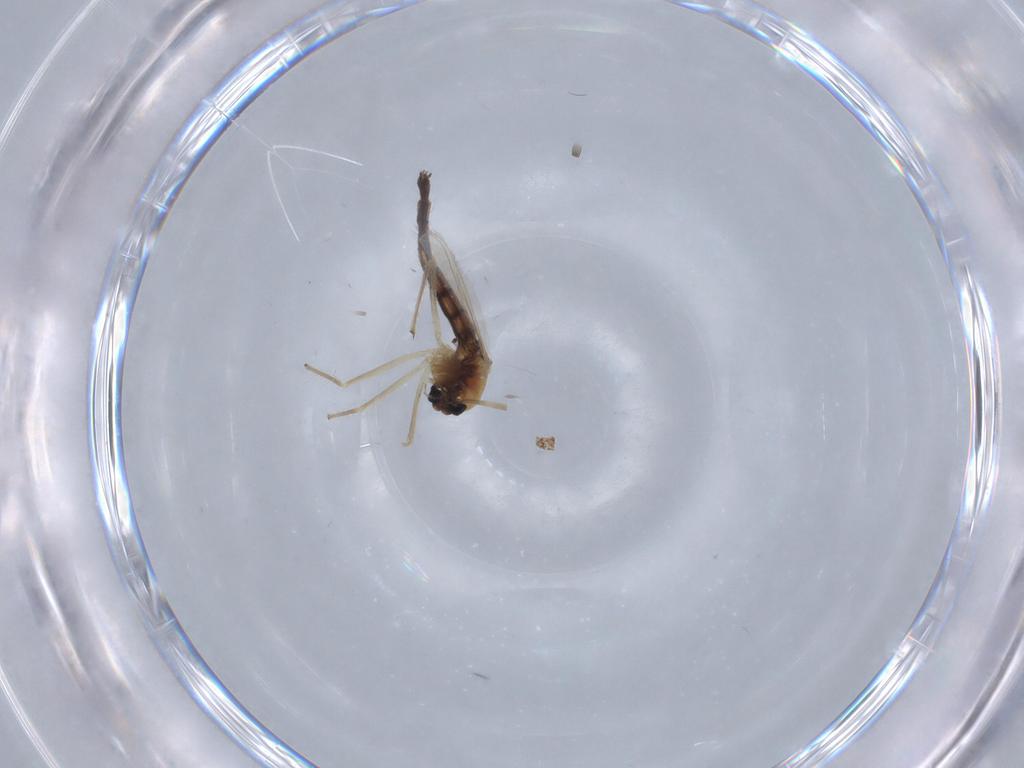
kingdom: Animalia
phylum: Arthropoda
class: Insecta
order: Diptera
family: Chironomidae
